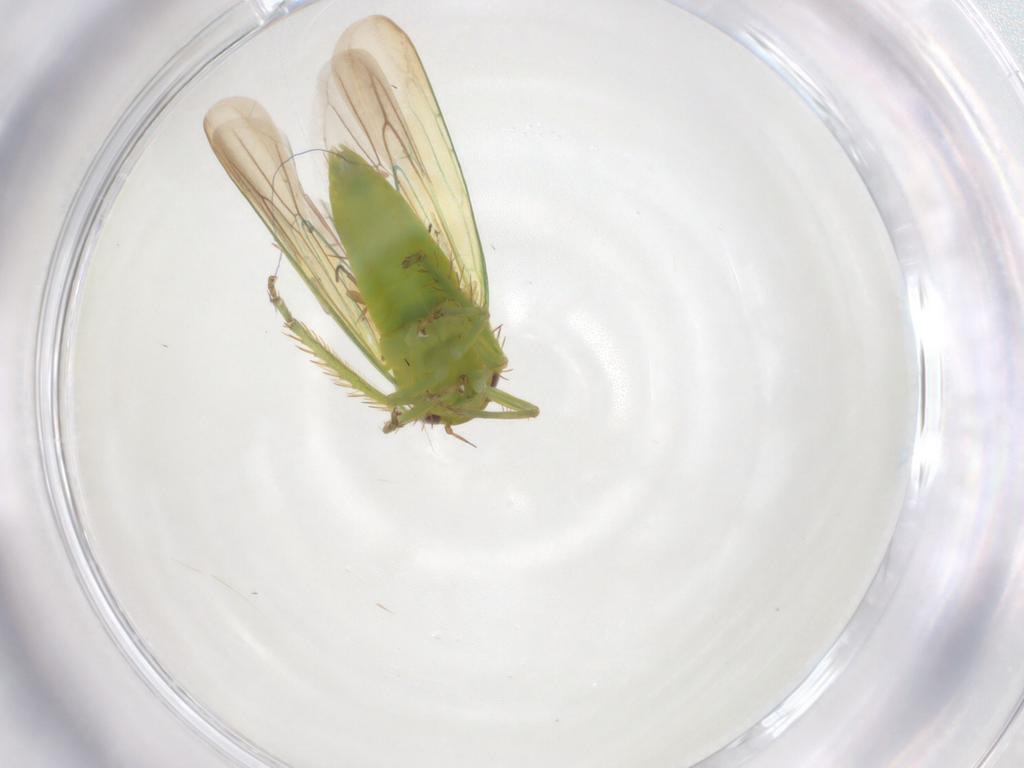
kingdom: Animalia
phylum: Arthropoda
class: Insecta
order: Hemiptera
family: Cicadellidae
